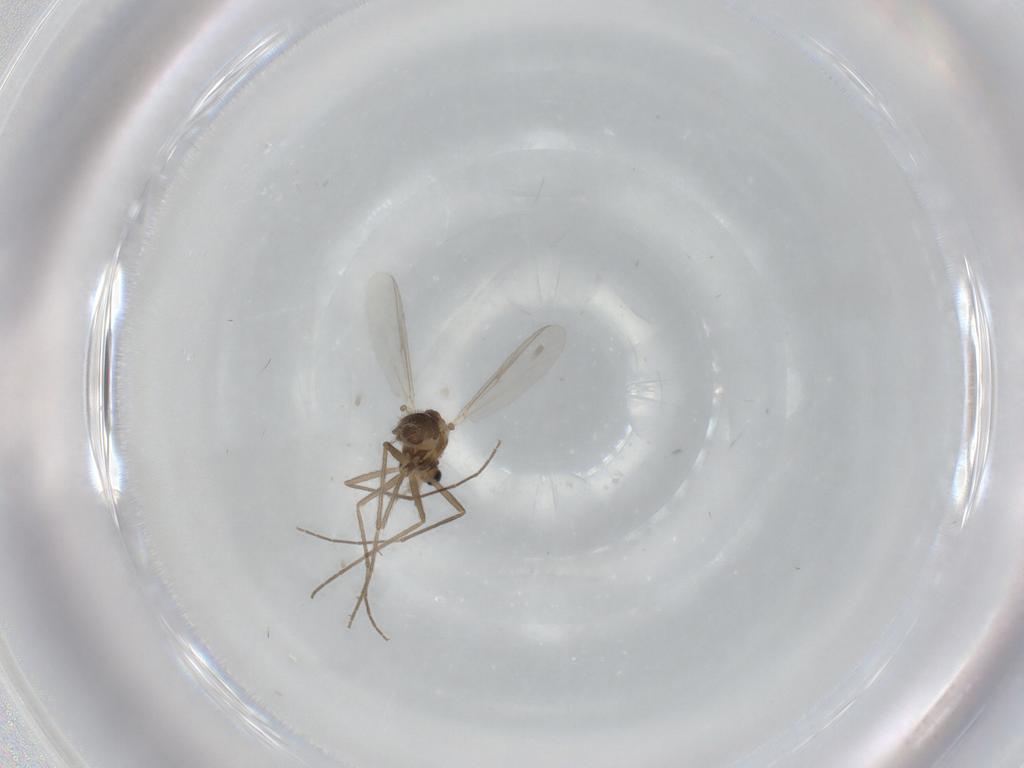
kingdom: Animalia
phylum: Arthropoda
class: Insecta
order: Diptera
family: Chironomidae
